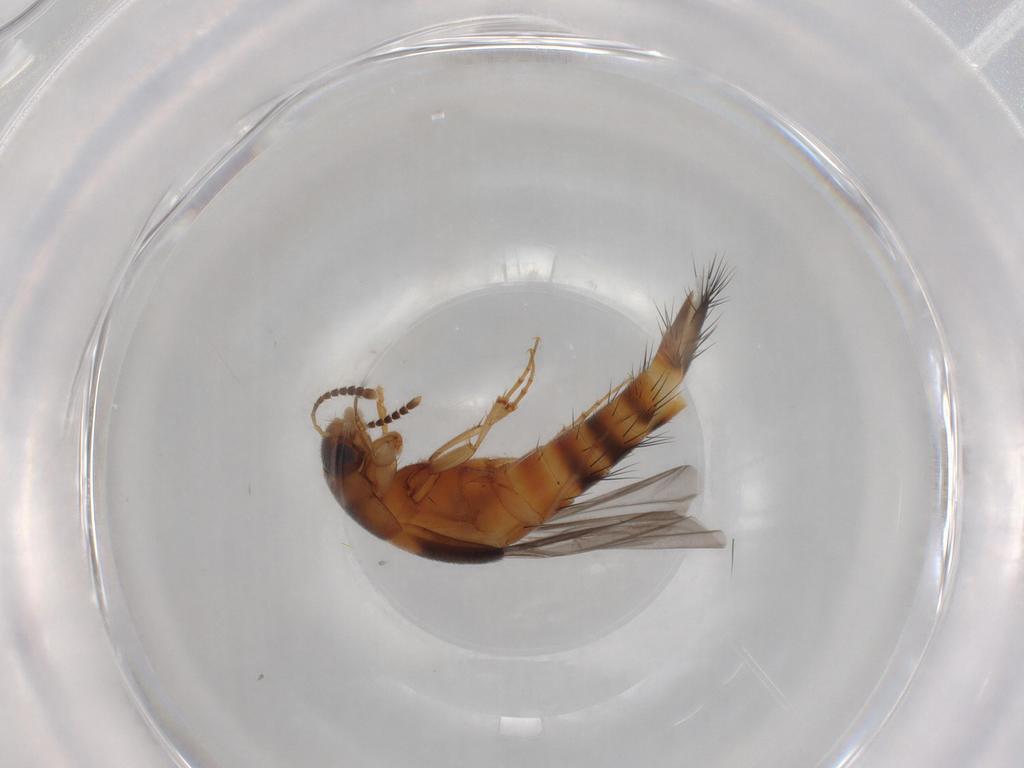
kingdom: Animalia
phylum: Arthropoda
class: Insecta
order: Coleoptera
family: Staphylinidae
